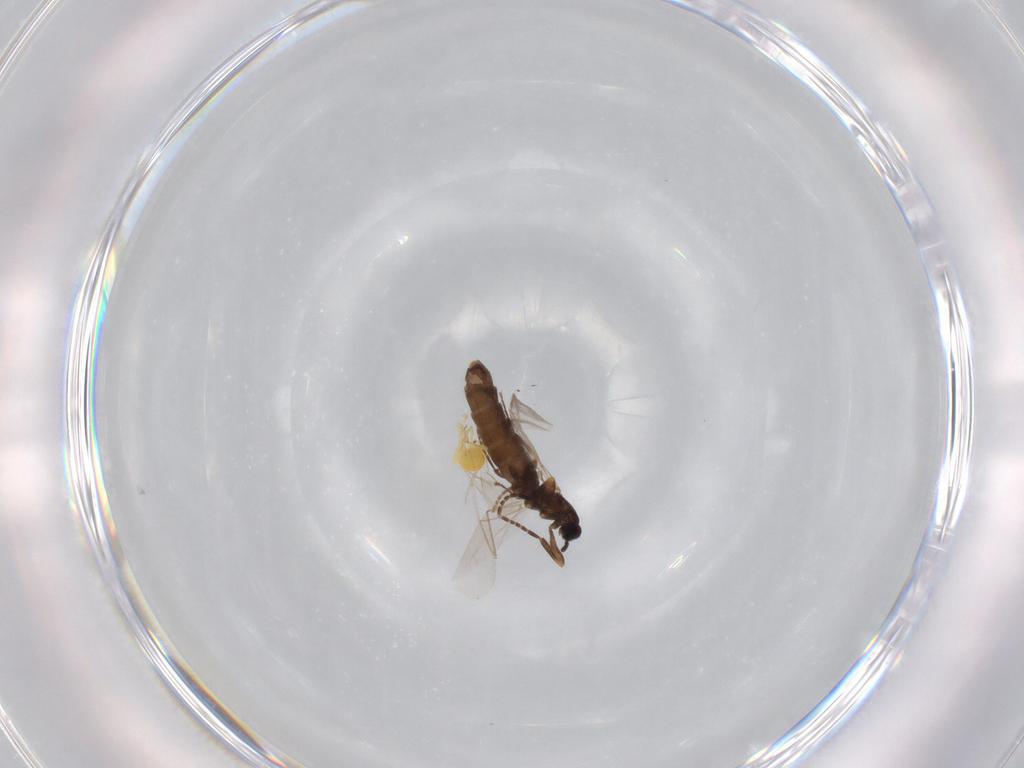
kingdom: Animalia
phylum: Arthropoda
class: Insecta
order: Diptera
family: Scatopsidae
